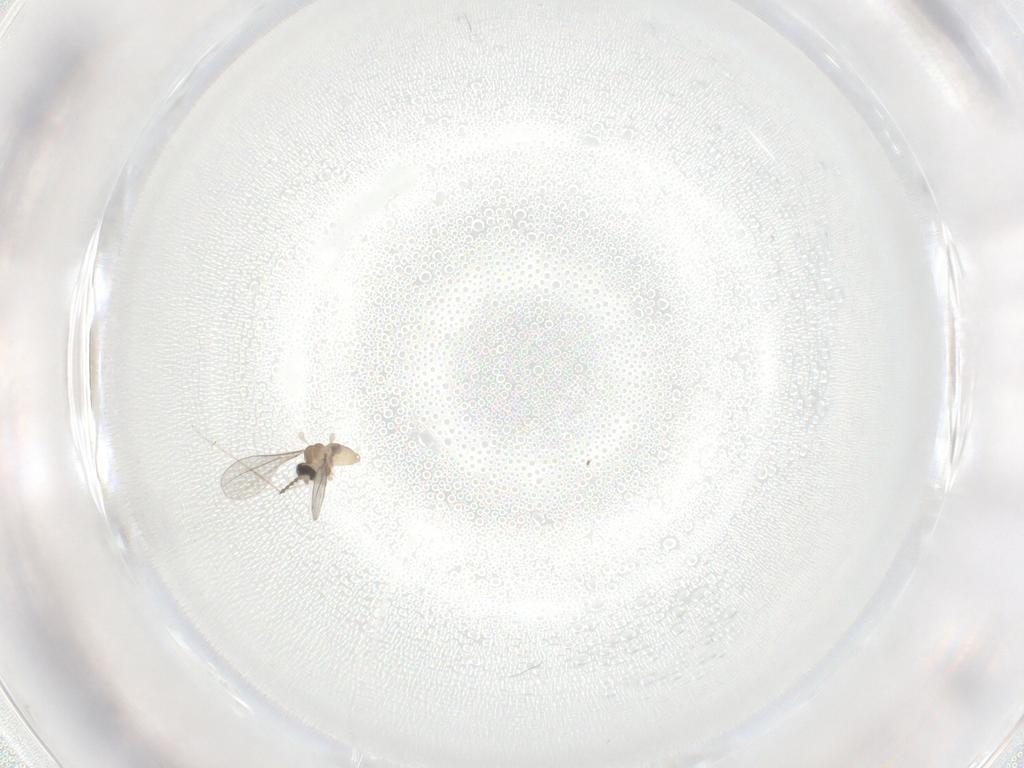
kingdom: Animalia
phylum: Arthropoda
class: Insecta
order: Diptera
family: Cecidomyiidae
